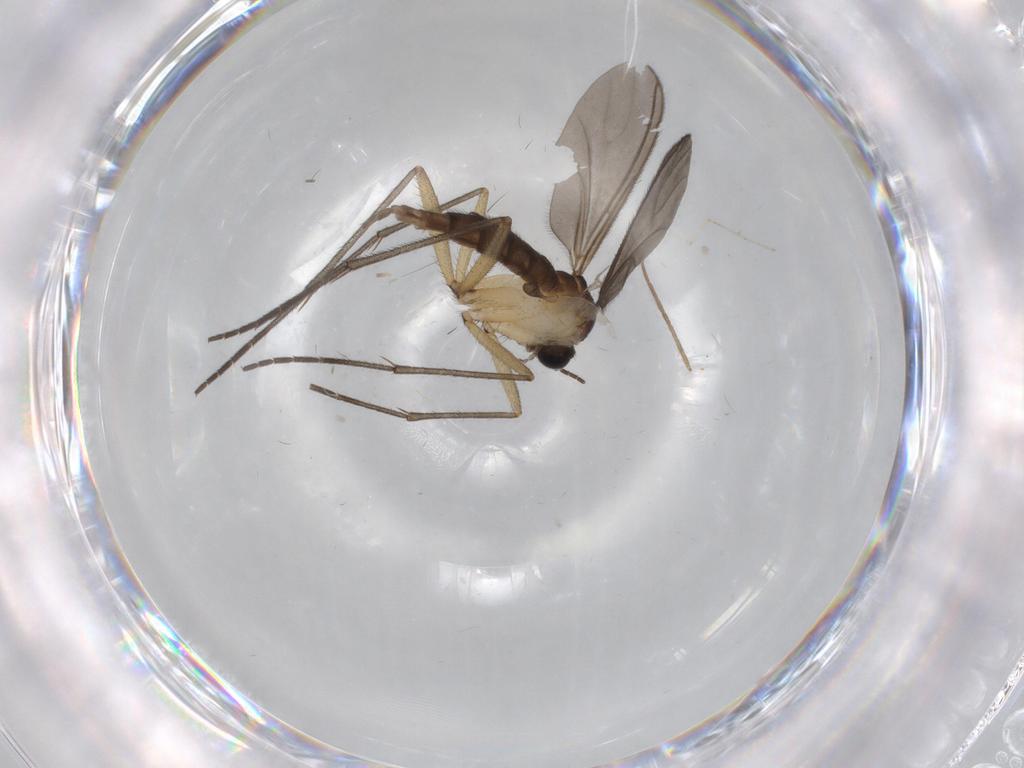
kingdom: Animalia
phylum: Arthropoda
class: Insecta
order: Diptera
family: Sciaridae
